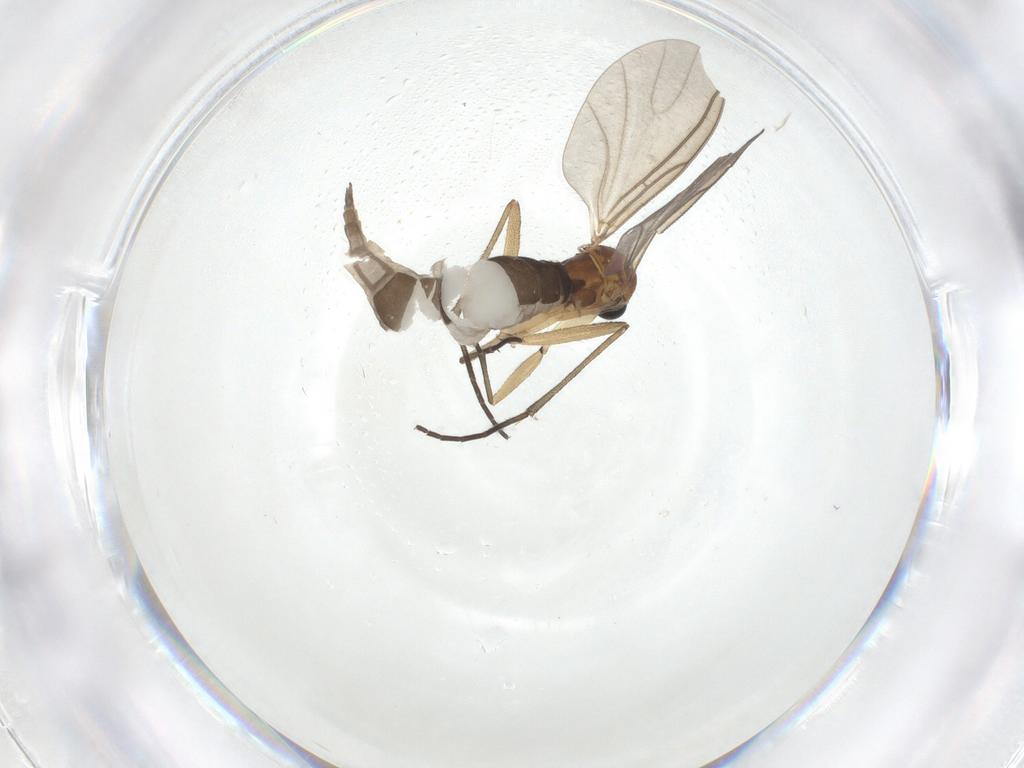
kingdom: Animalia
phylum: Arthropoda
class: Insecta
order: Diptera
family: Sciaridae
